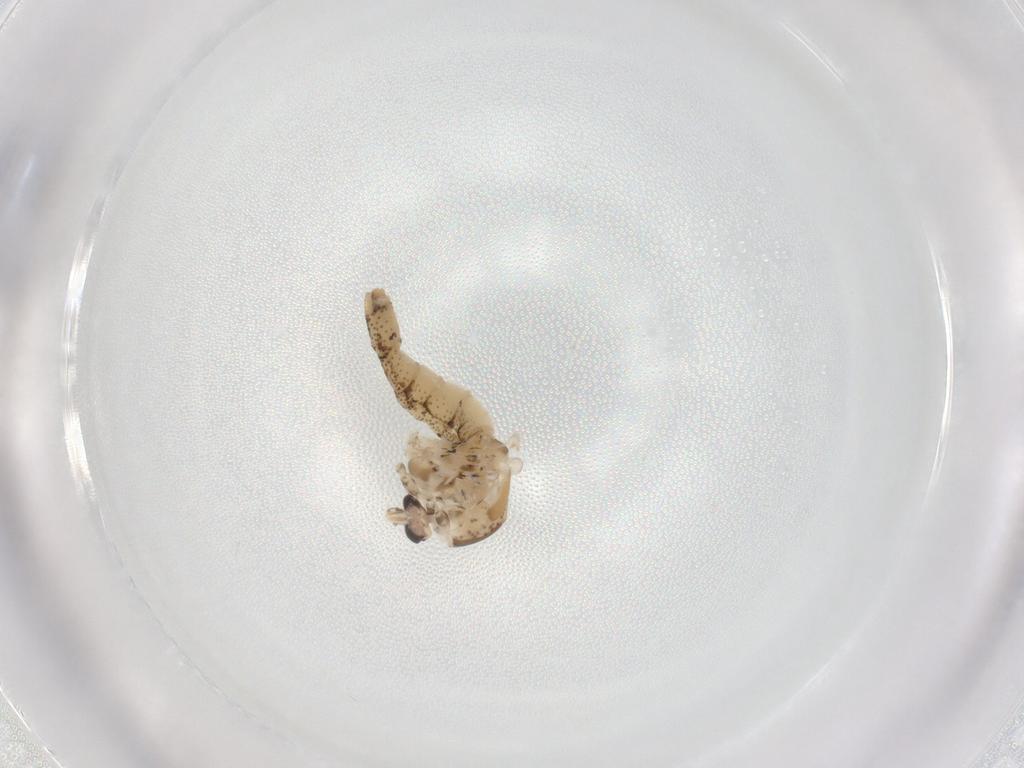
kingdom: Animalia
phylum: Arthropoda
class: Insecta
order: Diptera
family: Chaoboridae
